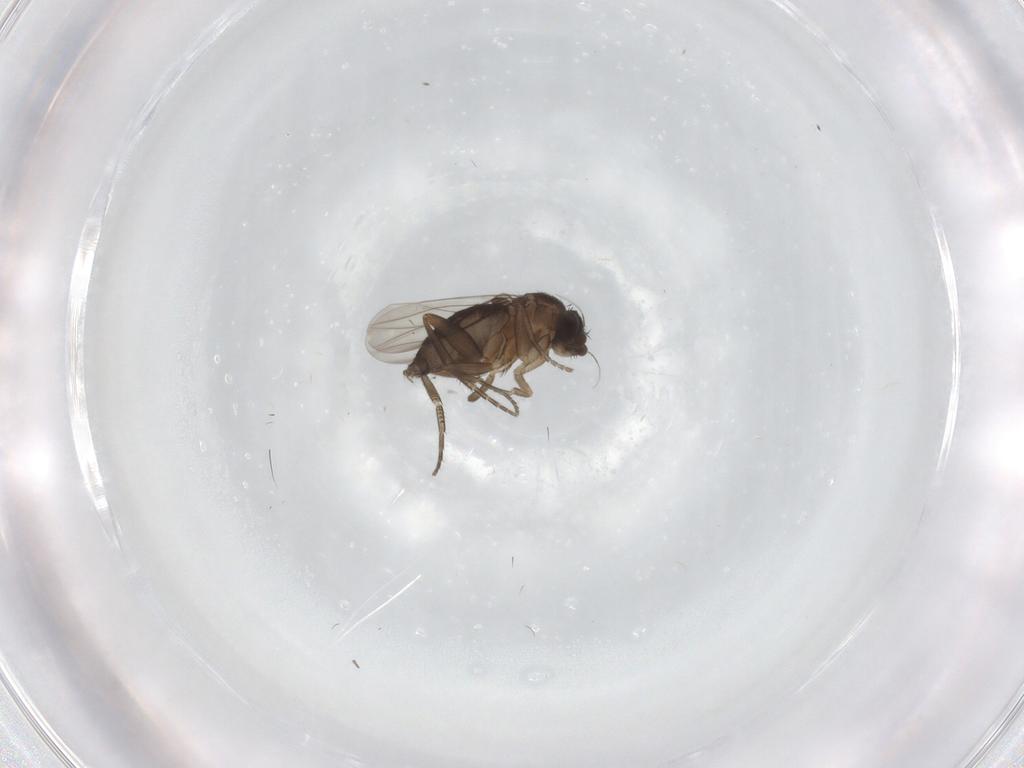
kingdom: Animalia
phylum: Arthropoda
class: Insecta
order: Diptera
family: Phoridae
